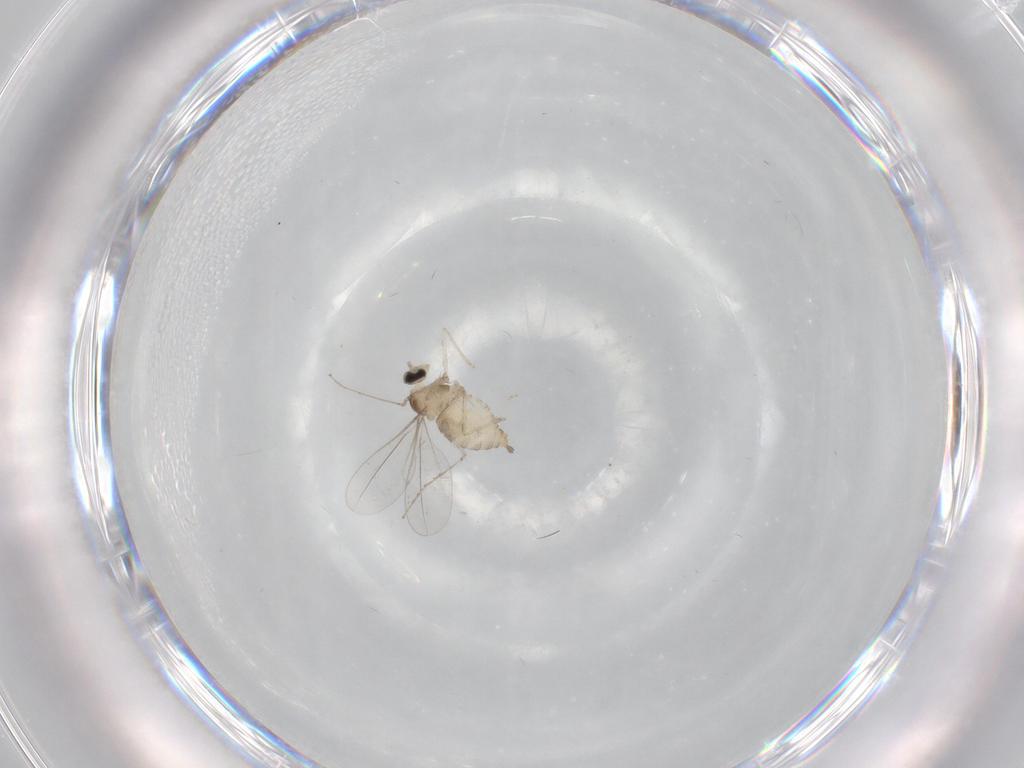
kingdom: Animalia
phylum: Arthropoda
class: Insecta
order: Diptera
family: Cecidomyiidae
